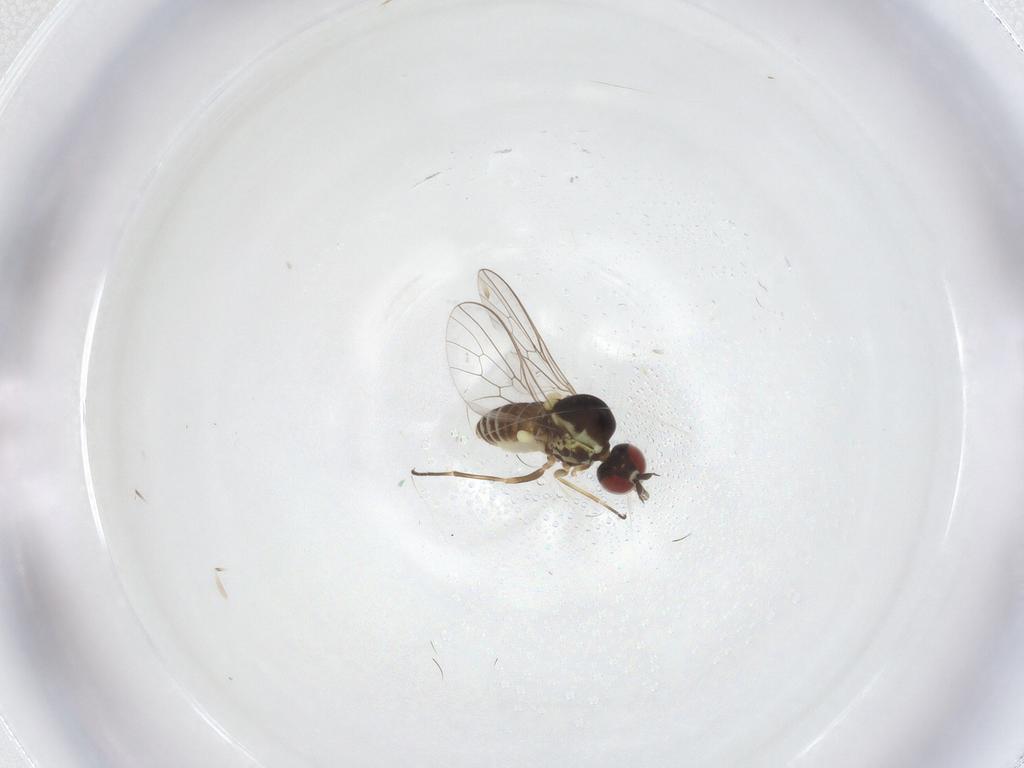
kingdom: Animalia
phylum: Arthropoda
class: Insecta
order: Diptera
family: Bombyliidae
